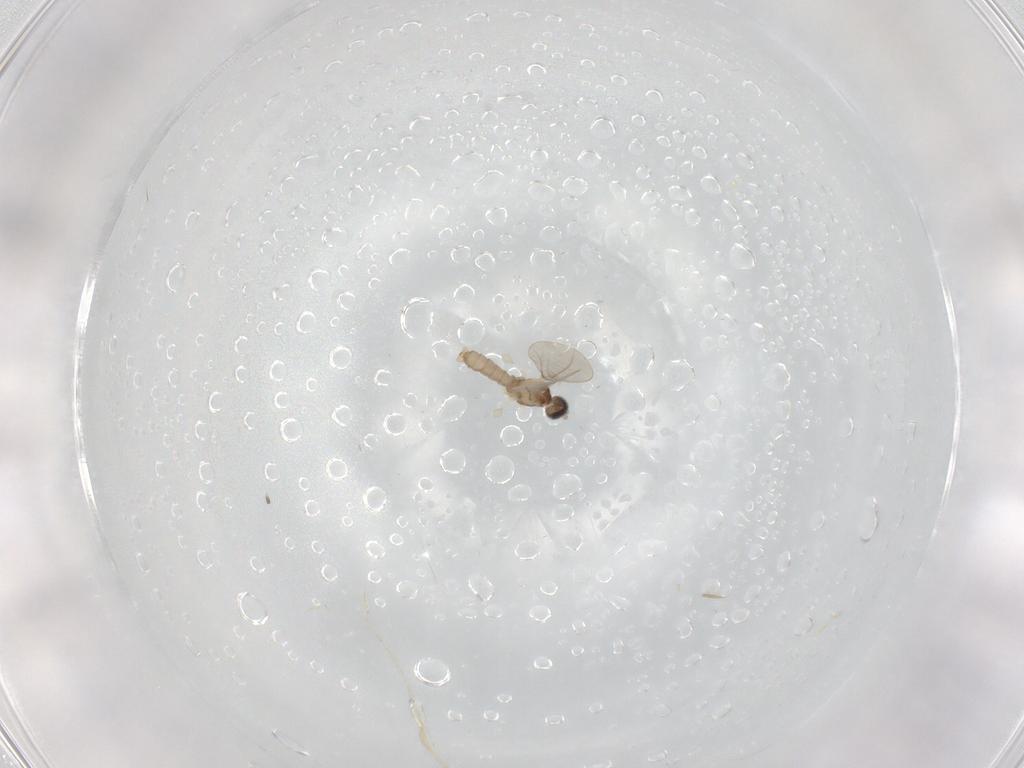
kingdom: Animalia
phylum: Arthropoda
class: Insecta
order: Diptera
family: Cecidomyiidae
